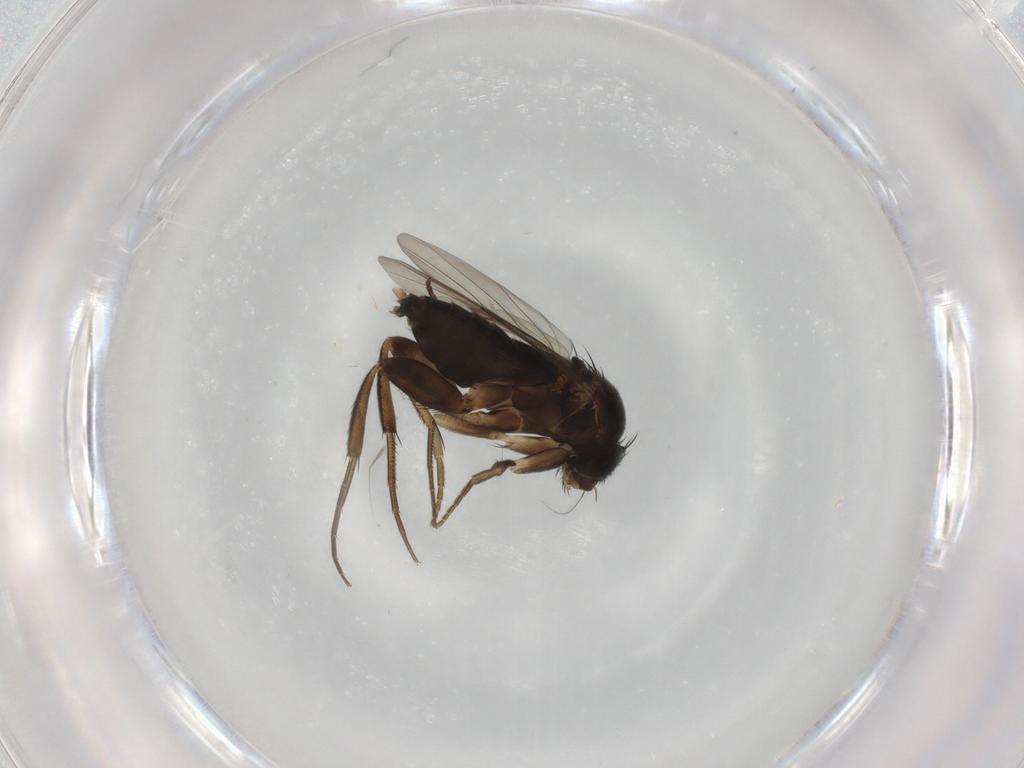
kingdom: Animalia
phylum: Arthropoda
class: Insecta
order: Diptera
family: Phoridae
